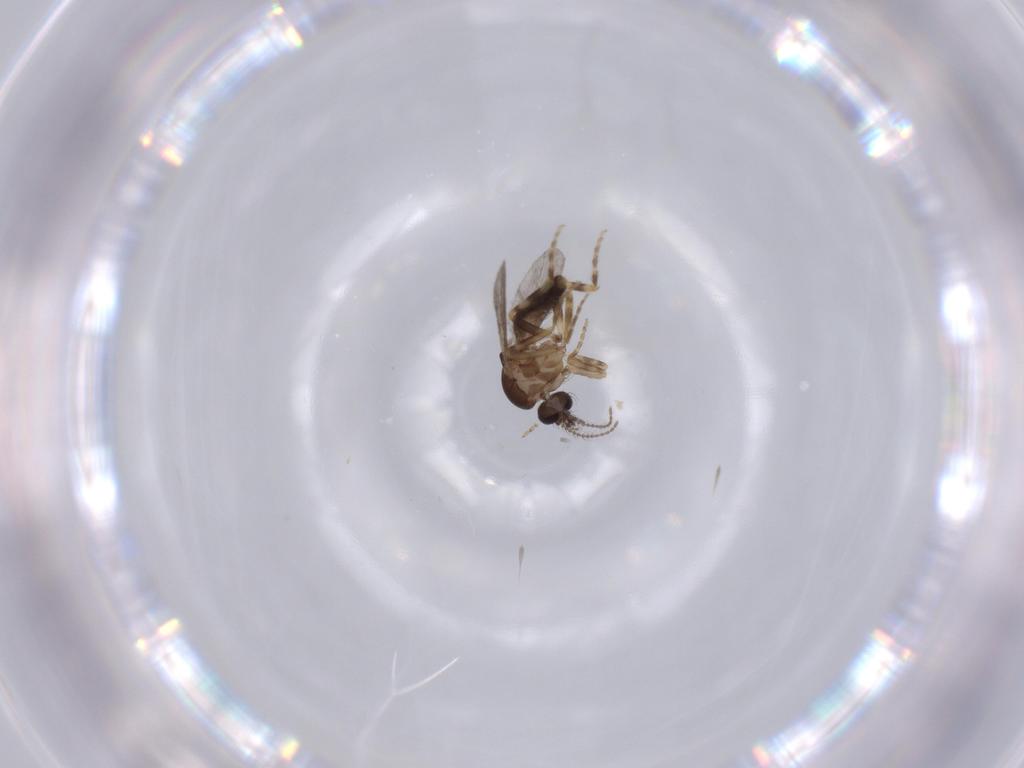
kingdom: Animalia
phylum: Arthropoda
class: Insecta
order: Diptera
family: Ceratopogonidae
